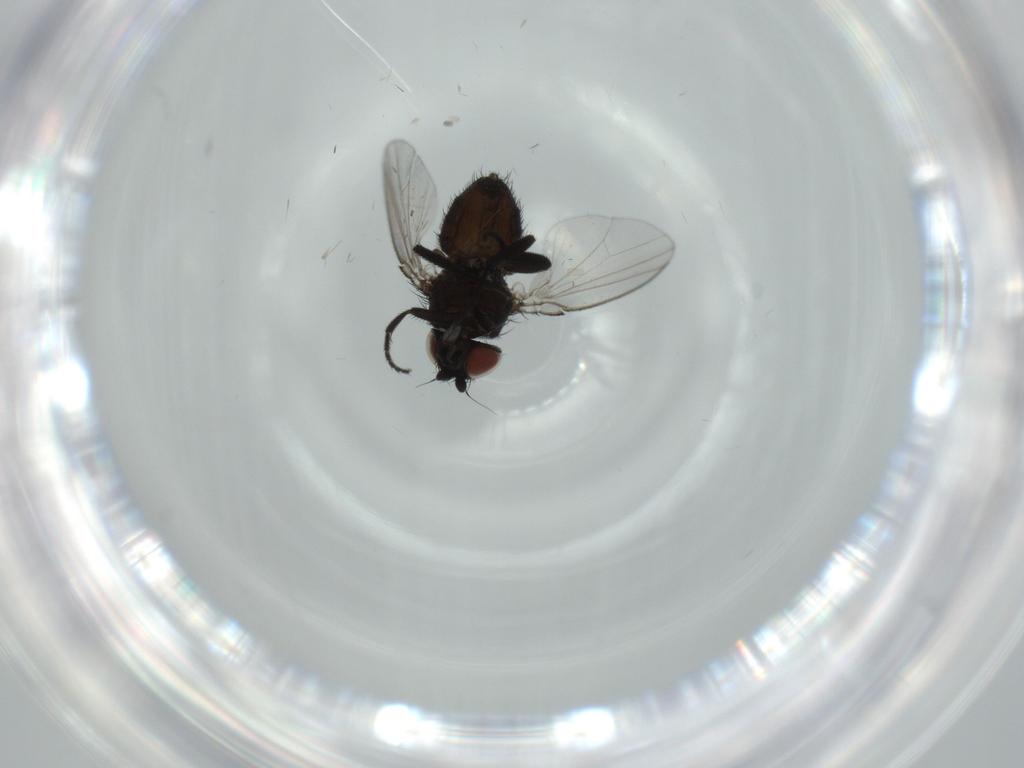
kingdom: Animalia
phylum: Arthropoda
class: Insecta
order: Diptera
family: Milichiidae
